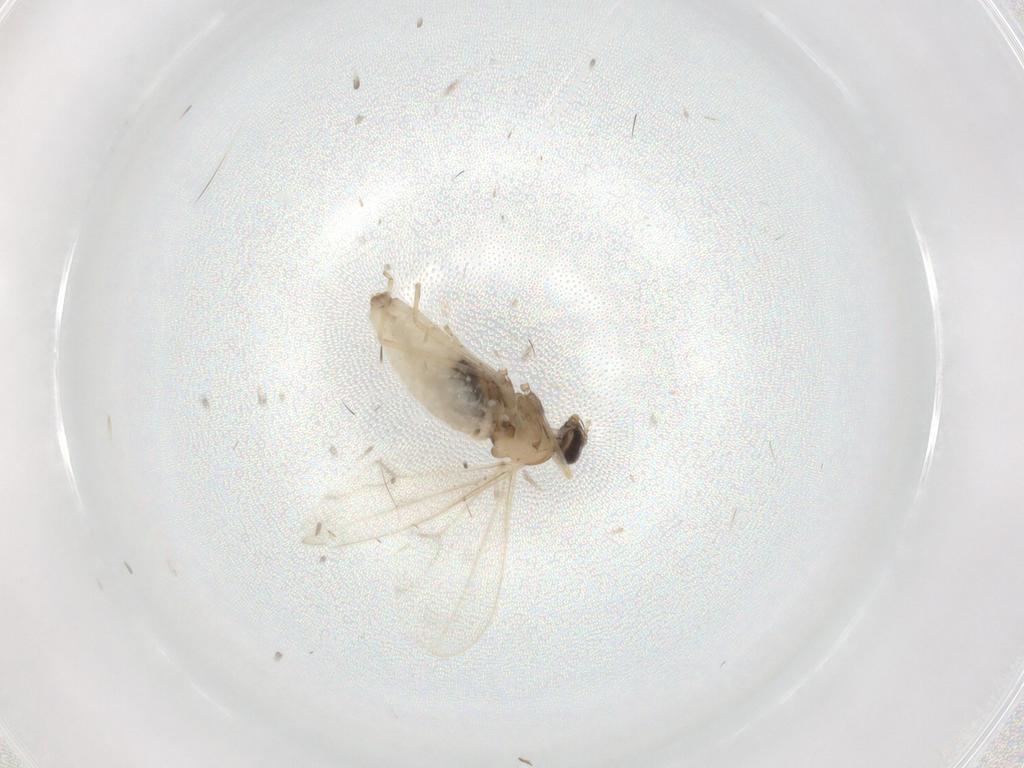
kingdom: Animalia
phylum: Arthropoda
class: Insecta
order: Diptera
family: Cecidomyiidae
